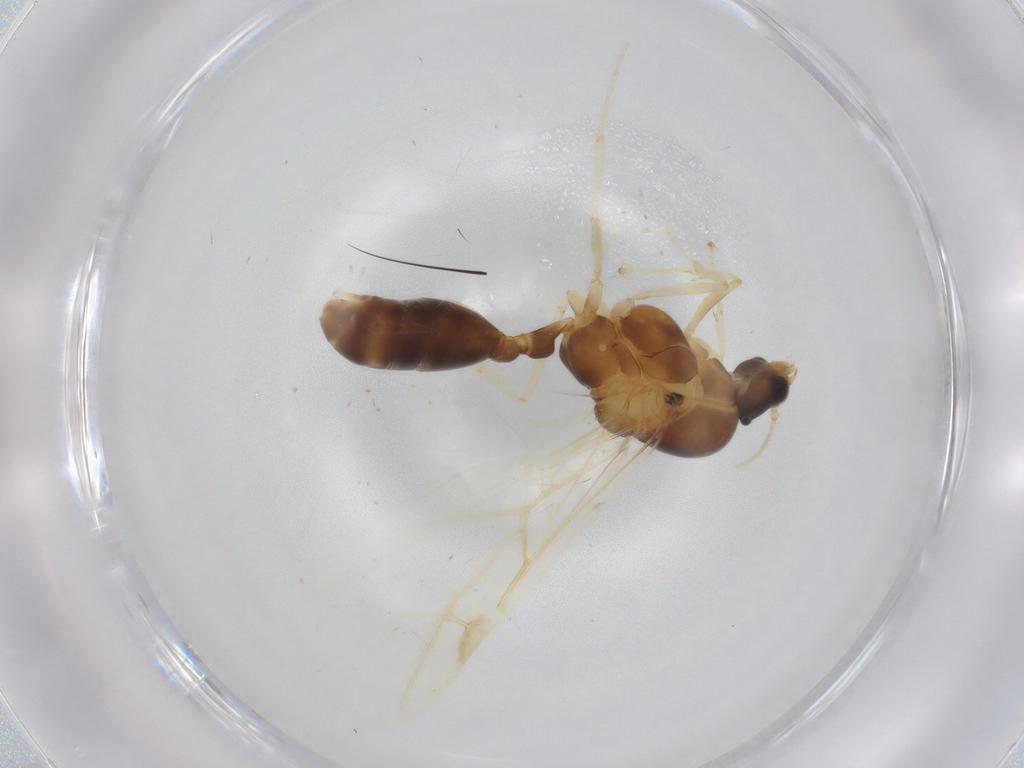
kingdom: Animalia
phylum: Arthropoda
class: Insecta
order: Hymenoptera
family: Formicidae
